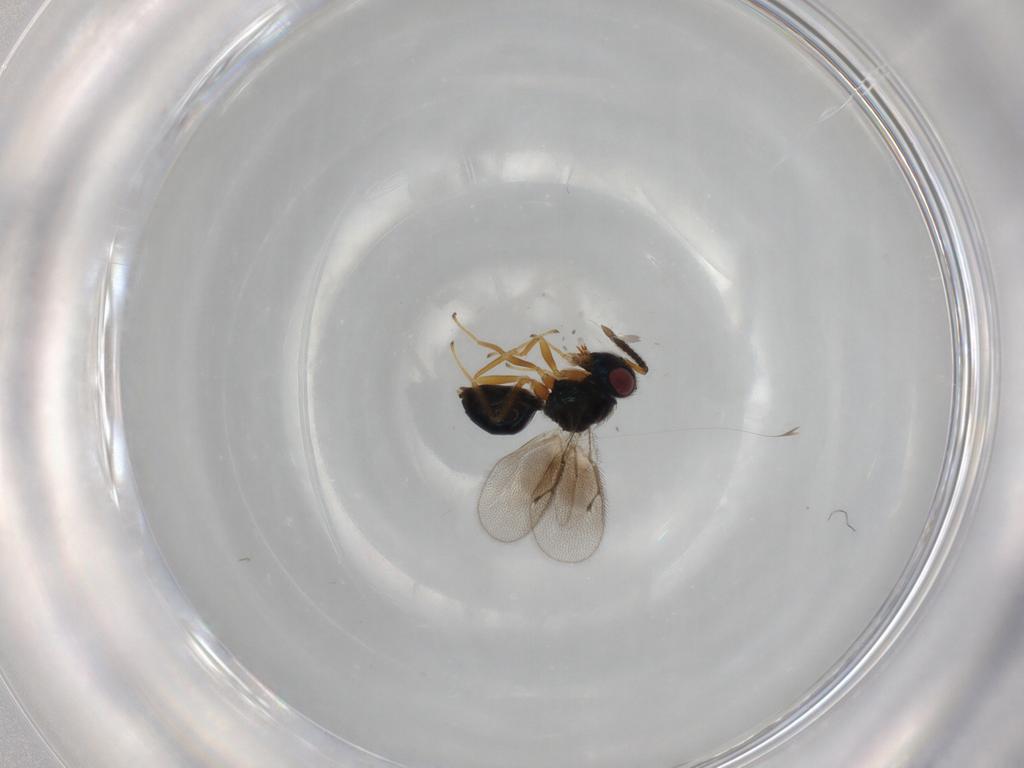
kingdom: Animalia
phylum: Arthropoda
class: Insecta
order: Hymenoptera
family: Pteromalidae
